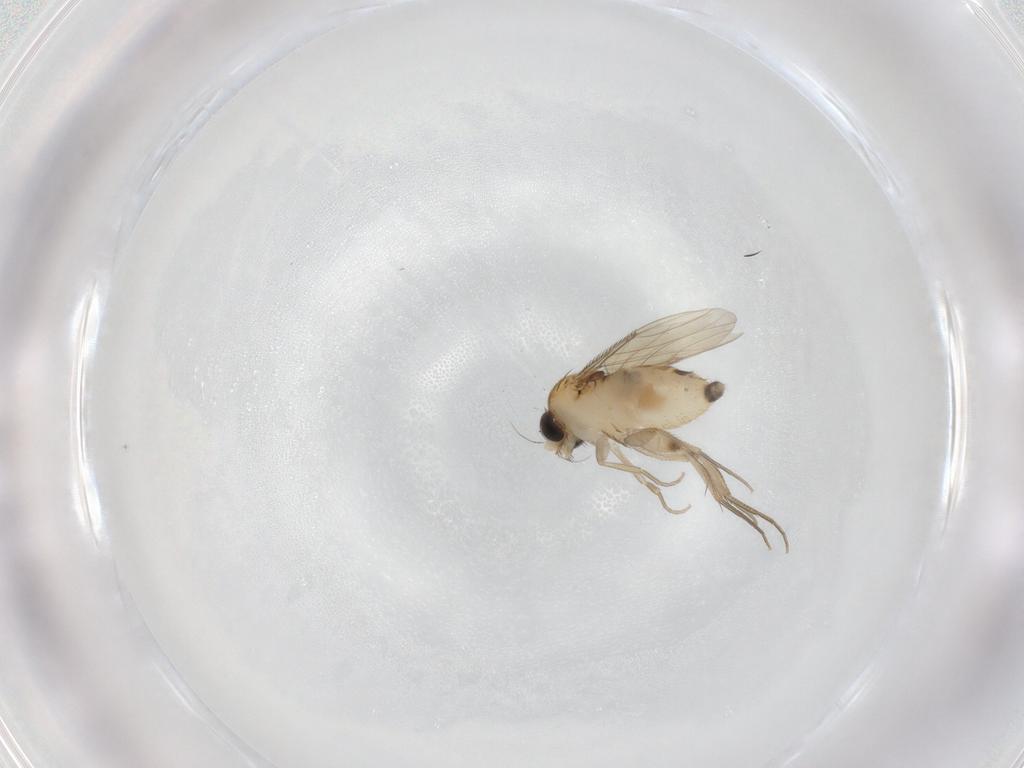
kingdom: Animalia
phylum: Arthropoda
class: Insecta
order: Diptera
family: Phoridae
